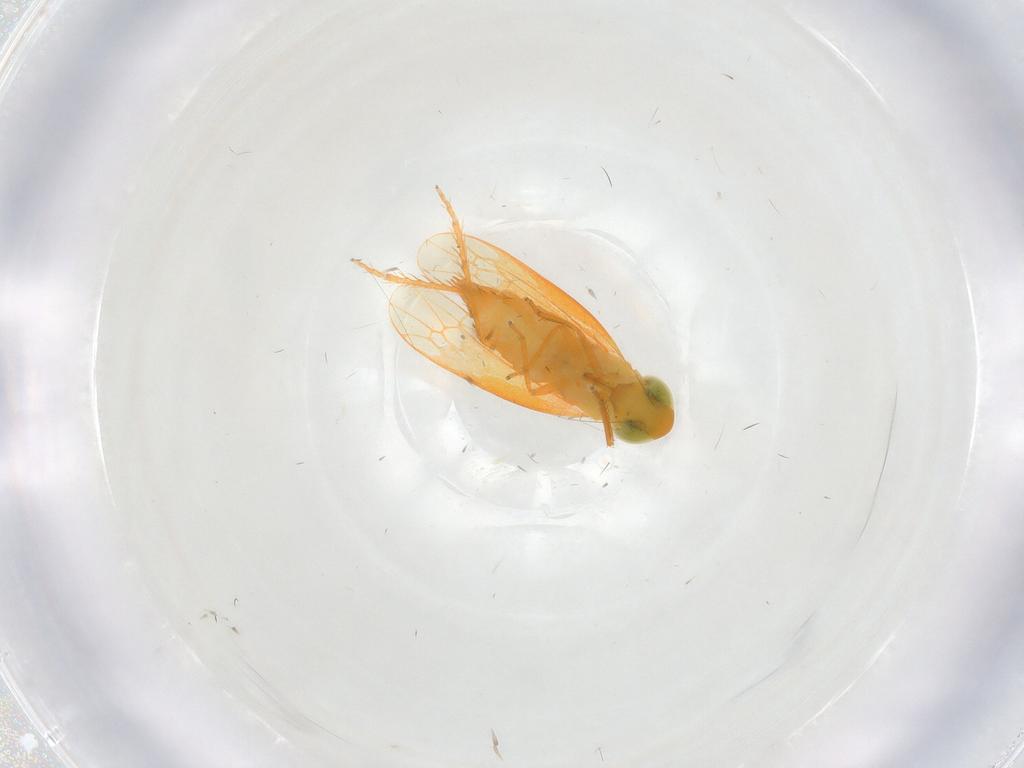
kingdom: Animalia
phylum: Arthropoda
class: Insecta
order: Hemiptera
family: Cicadellidae
